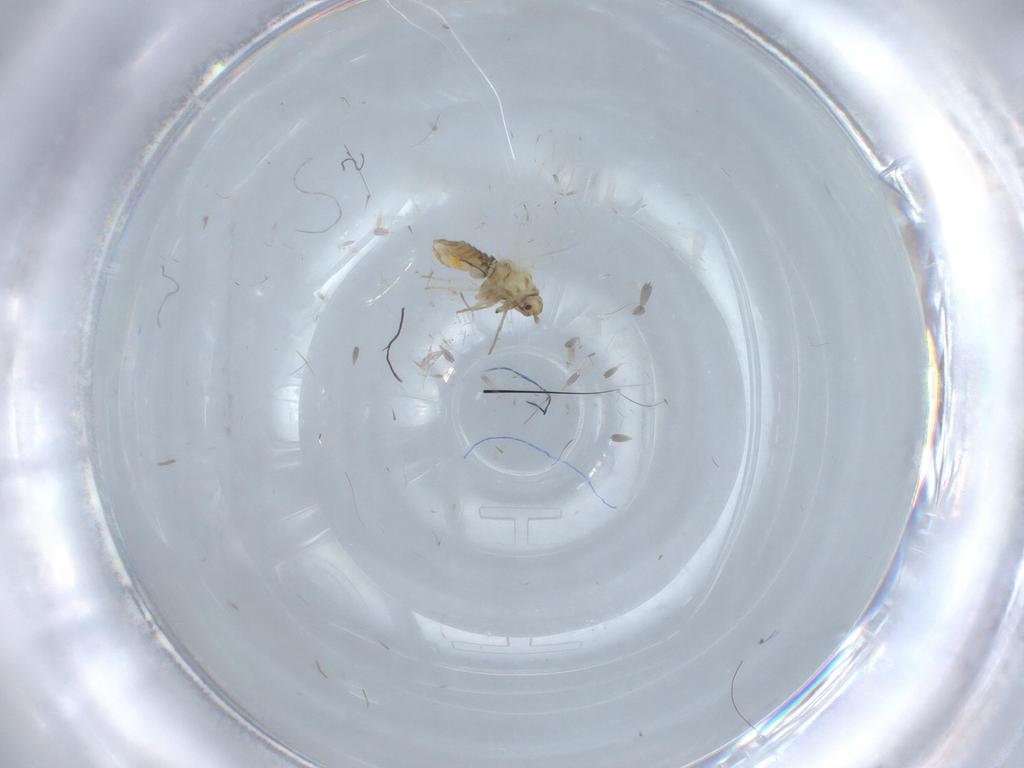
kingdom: Animalia
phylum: Arthropoda
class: Insecta
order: Hemiptera
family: Aleyrodidae
